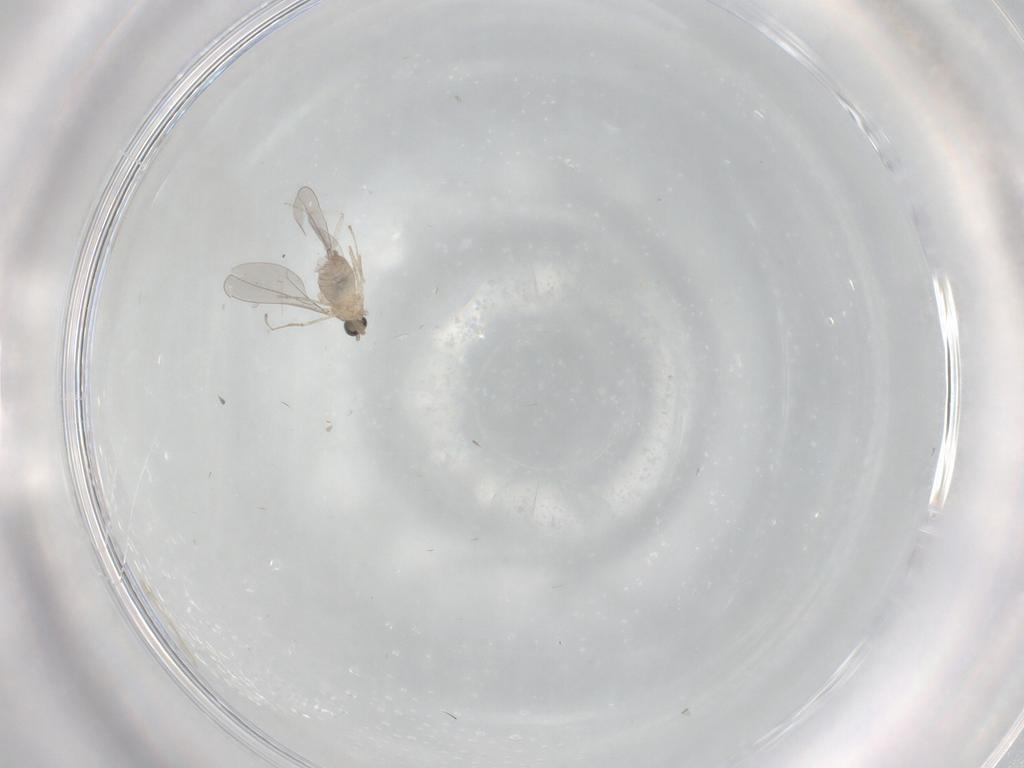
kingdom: Animalia
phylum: Arthropoda
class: Insecta
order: Diptera
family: Cecidomyiidae
